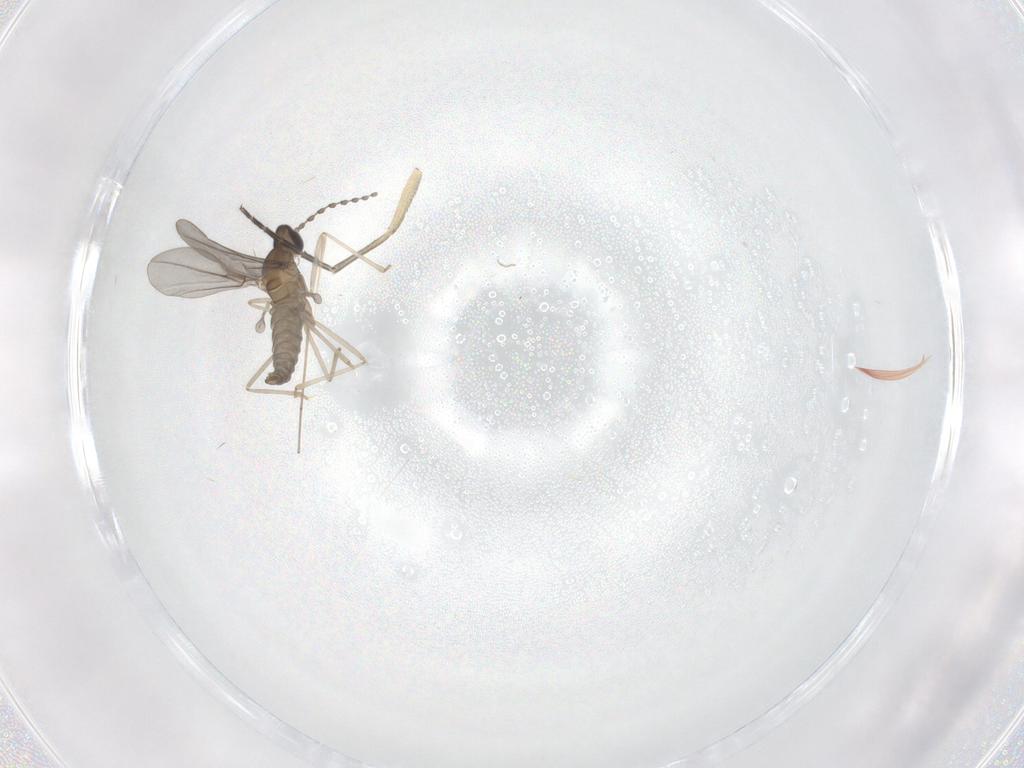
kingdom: Animalia
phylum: Arthropoda
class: Insecta
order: Diptera
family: Keroplatidae
